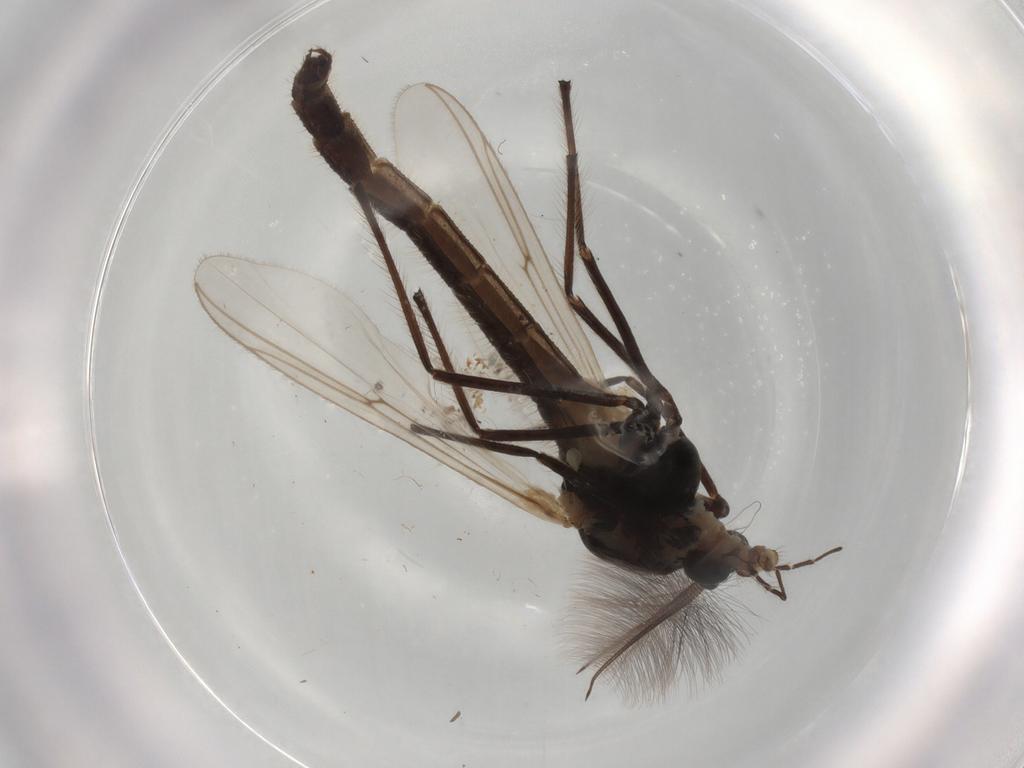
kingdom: Animalia
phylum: Arthropoda
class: Insecta
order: Diptera
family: Chironomidae
